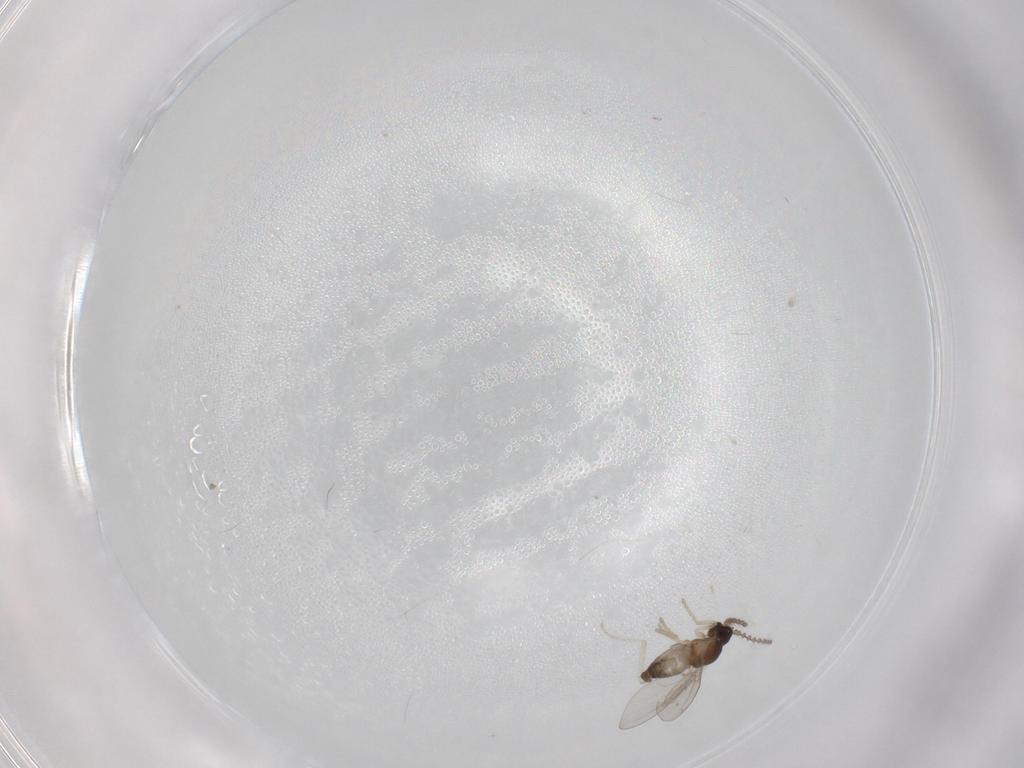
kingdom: Animalia
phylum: Arthropoda
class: Insecta
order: Diptera
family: Cecidomyiidae
